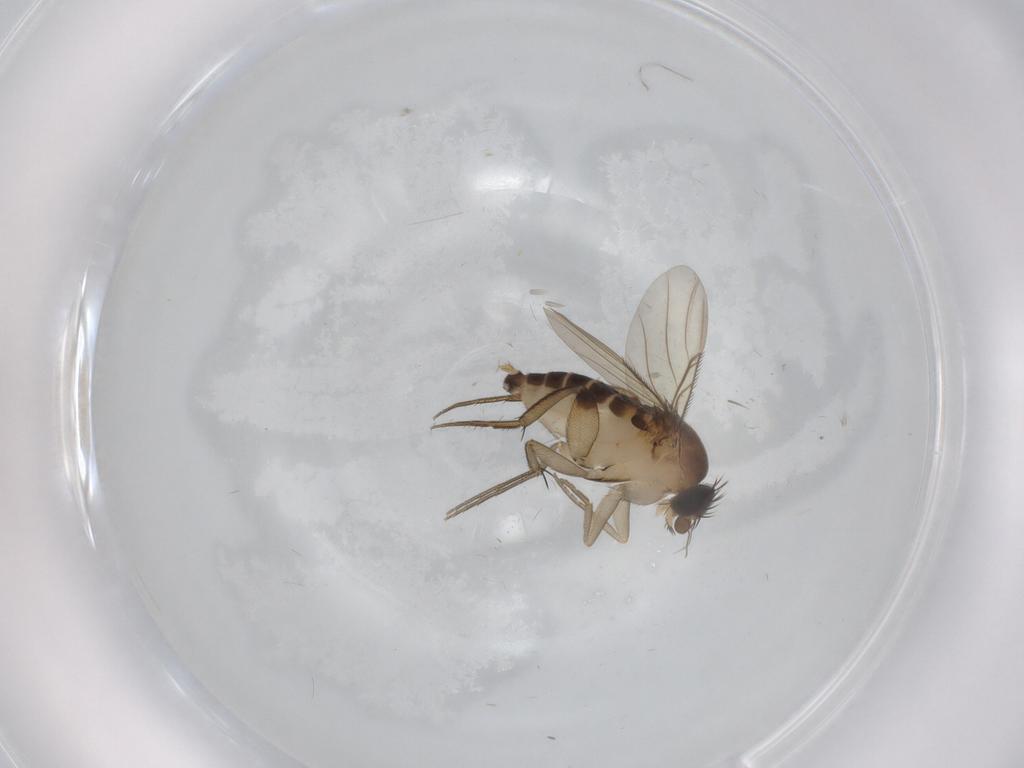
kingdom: Animalia
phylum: Arthropoda
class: Insecta
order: Diptera
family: Phoridae
